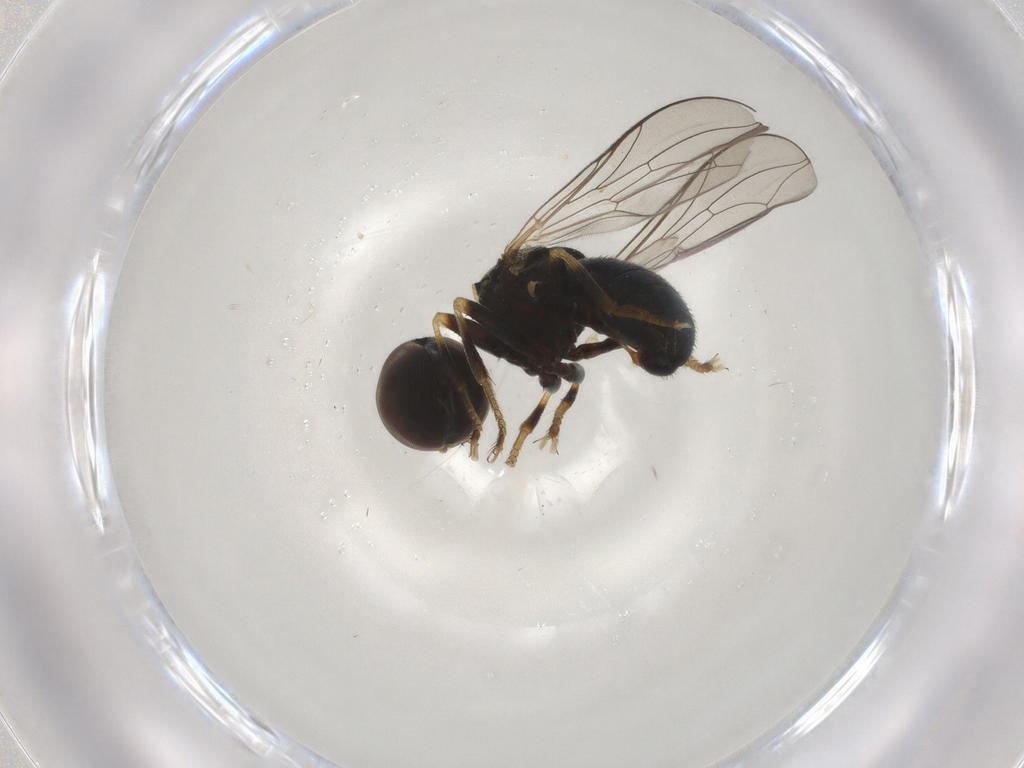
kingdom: Animalia
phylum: Arthropoda
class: Insecta
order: Diptera
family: Pipunculidae
